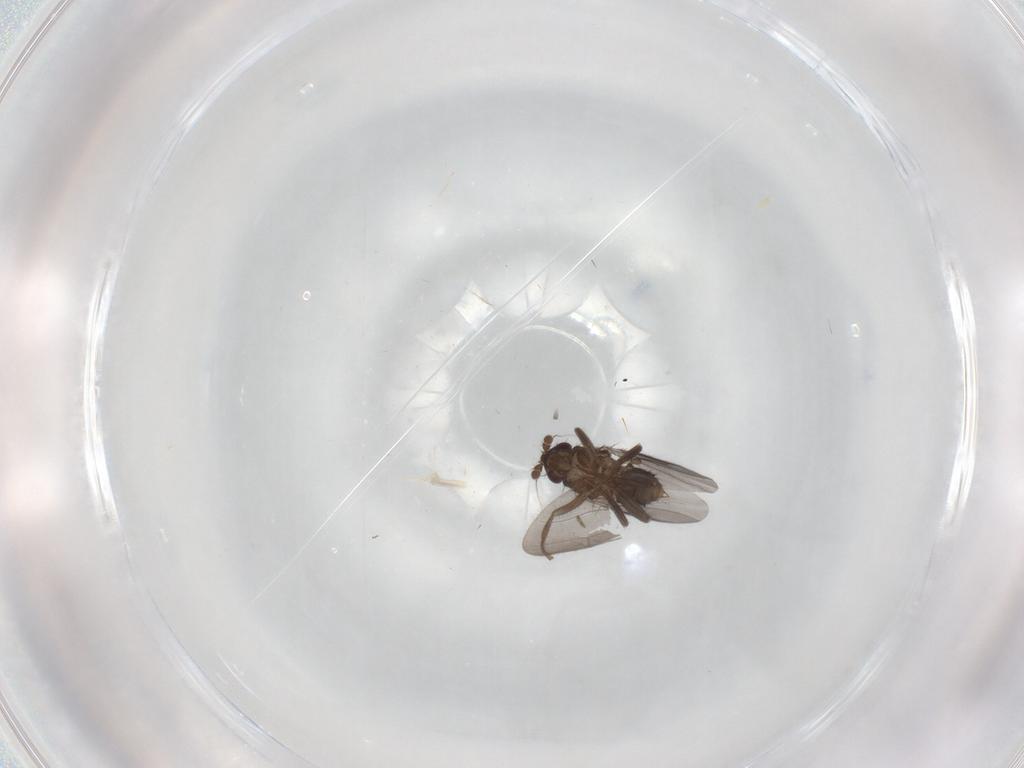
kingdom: Animalia
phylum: Arthropoda
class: Insecta
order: Diptera
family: Sphaeroceridae
